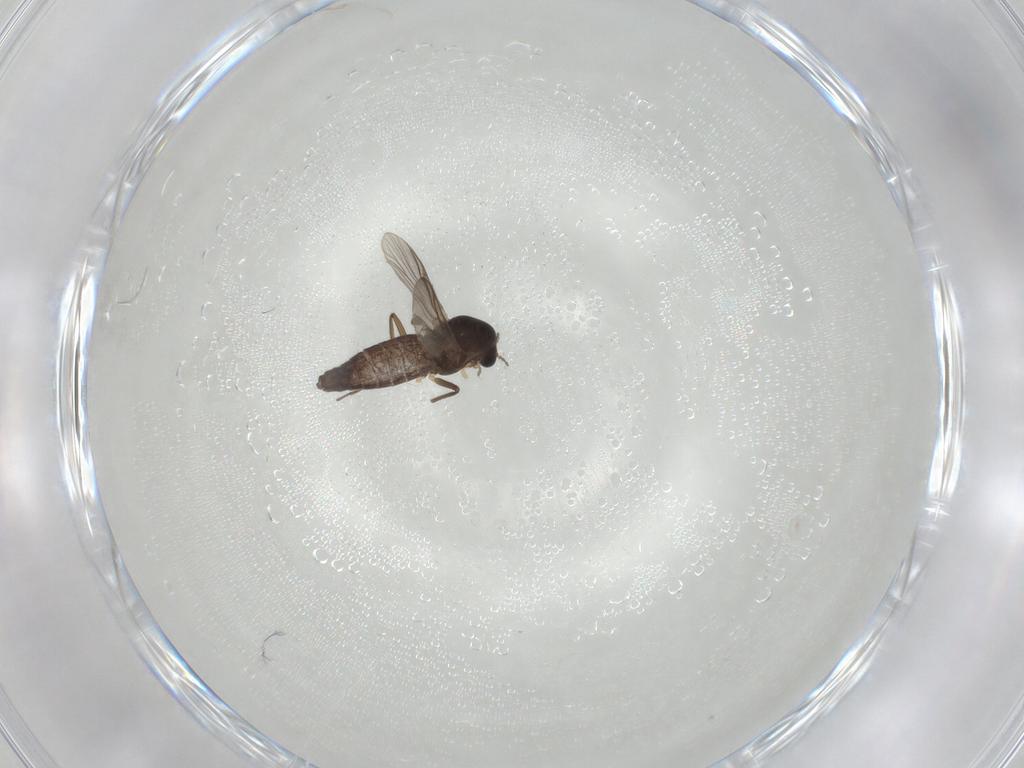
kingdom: Animalia
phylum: Arthropoda
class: Insecta
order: Diptera
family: Chironomidae
